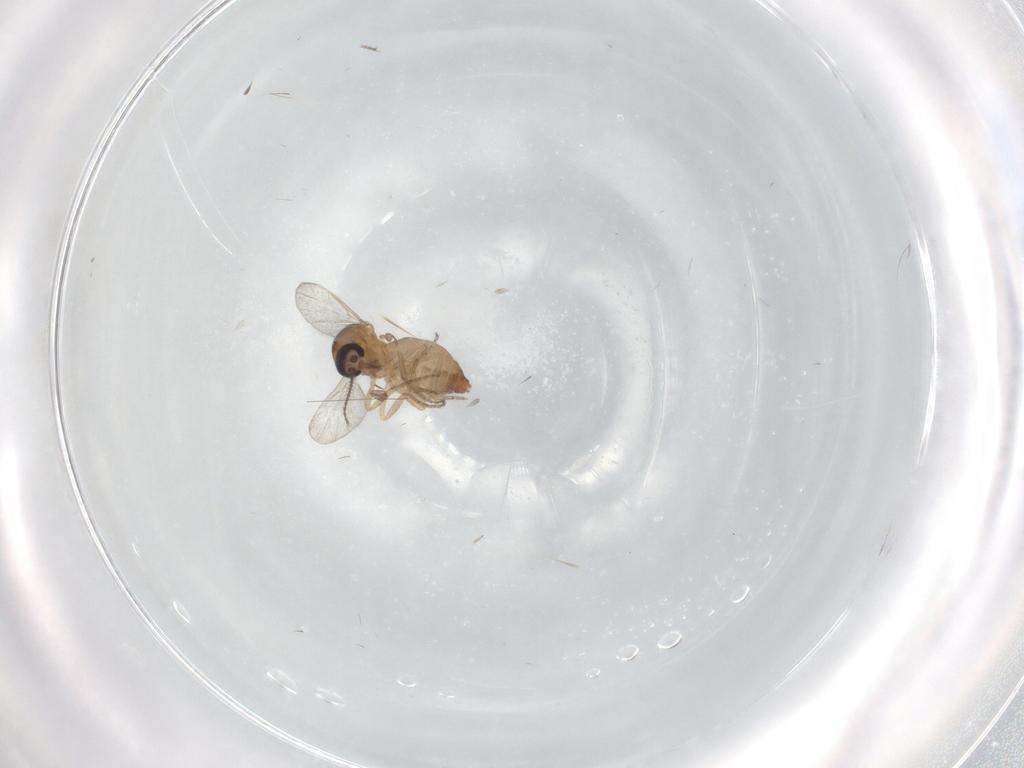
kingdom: Animalia
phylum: Arthropoda
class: Insecta
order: Diptera
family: Ceratopogonidae
